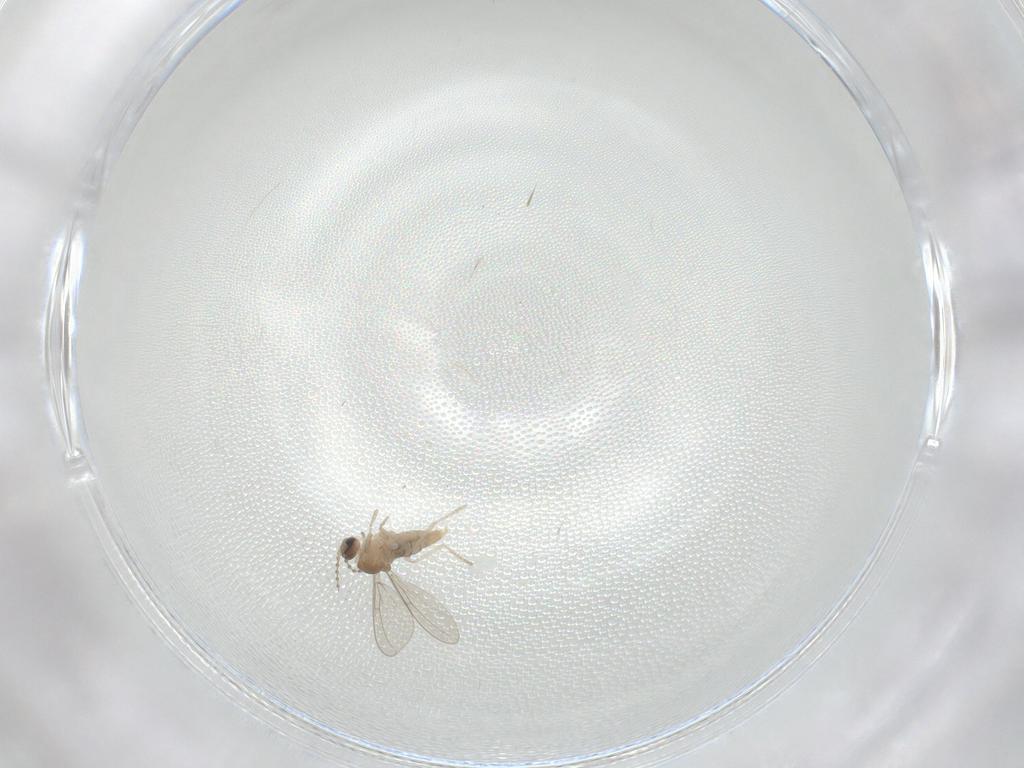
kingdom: Animalia
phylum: Arthropoda
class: Insecta
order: Diptera
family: Cecidomyiidae
